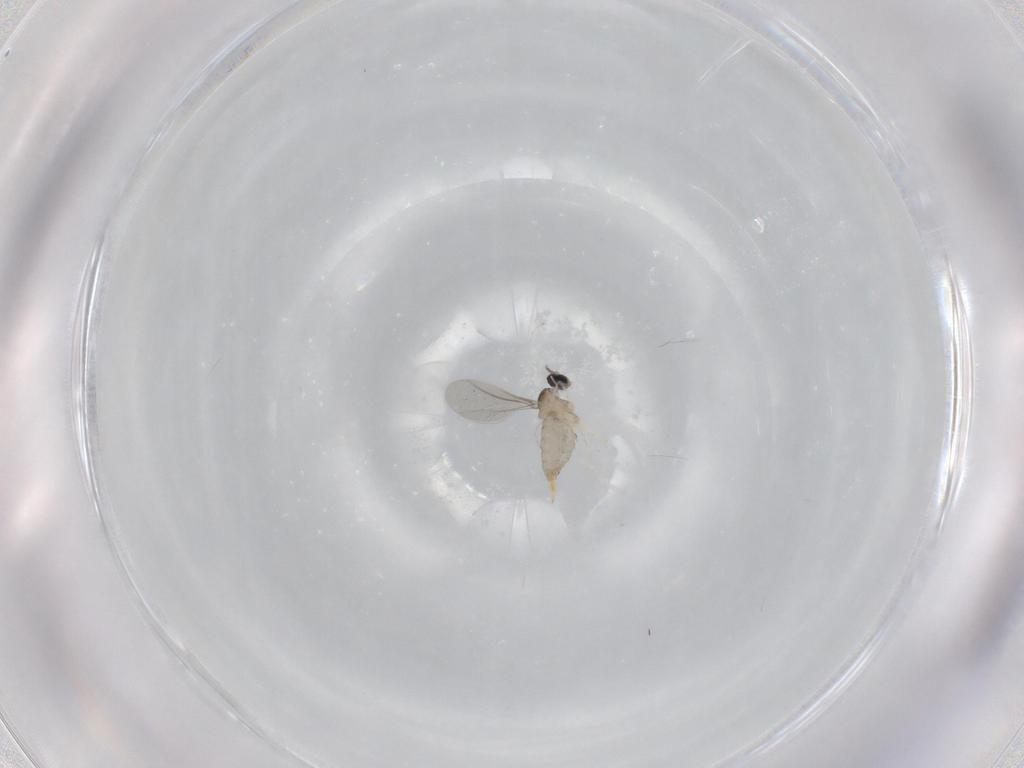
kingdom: Animalia
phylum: Arthropoda
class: Insecta
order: Diptera
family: Cecidomyiidae
